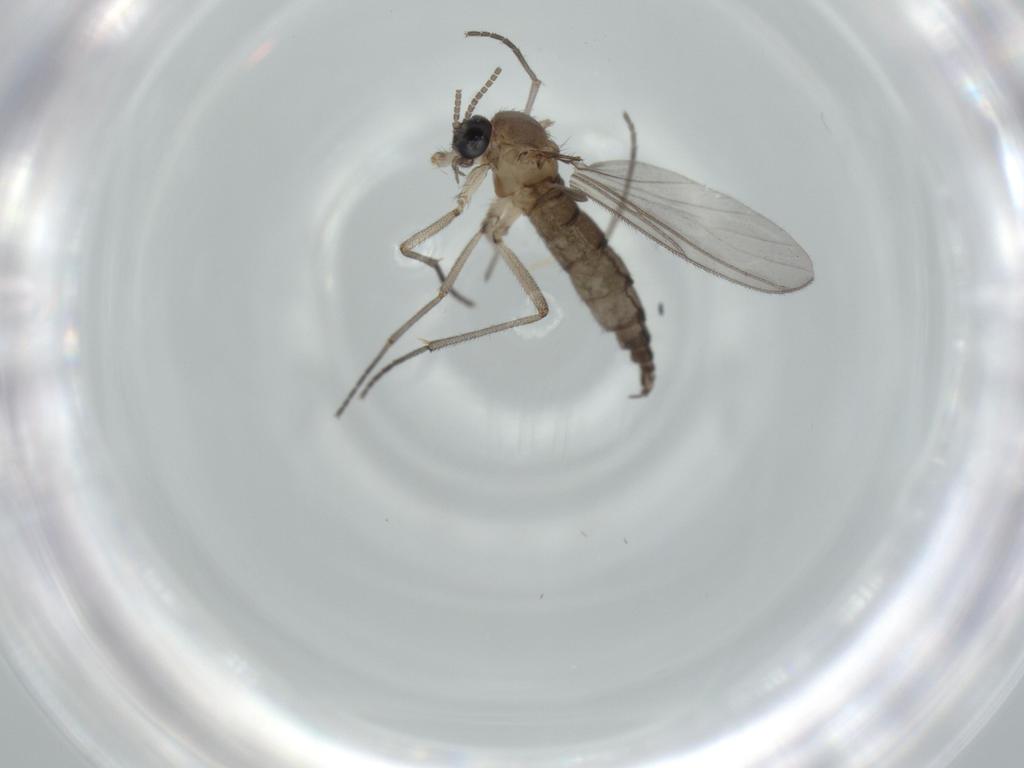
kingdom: Animalia
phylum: Arthropoda
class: Insecta
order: Diptera
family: Sciaridae
